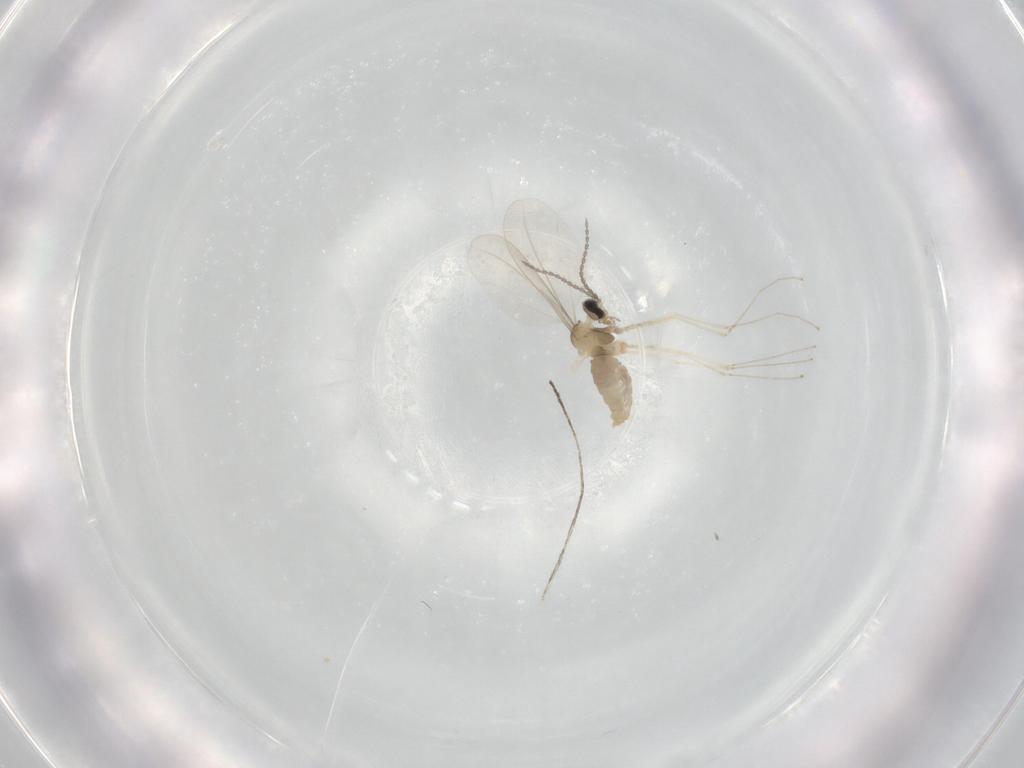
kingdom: Animalia
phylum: Arthropoda
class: Insecta
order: Diptera
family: Cecidomyiidae
